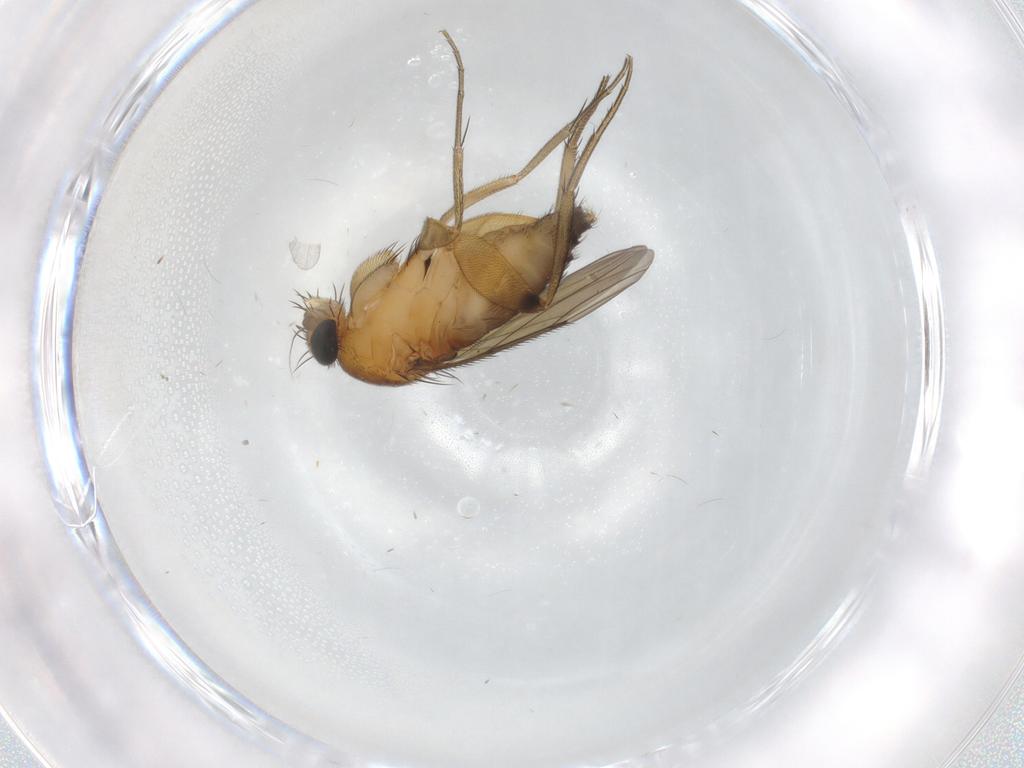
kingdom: Animalia
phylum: Arthropoda
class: Insecta
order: Diptera
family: Phoridae
